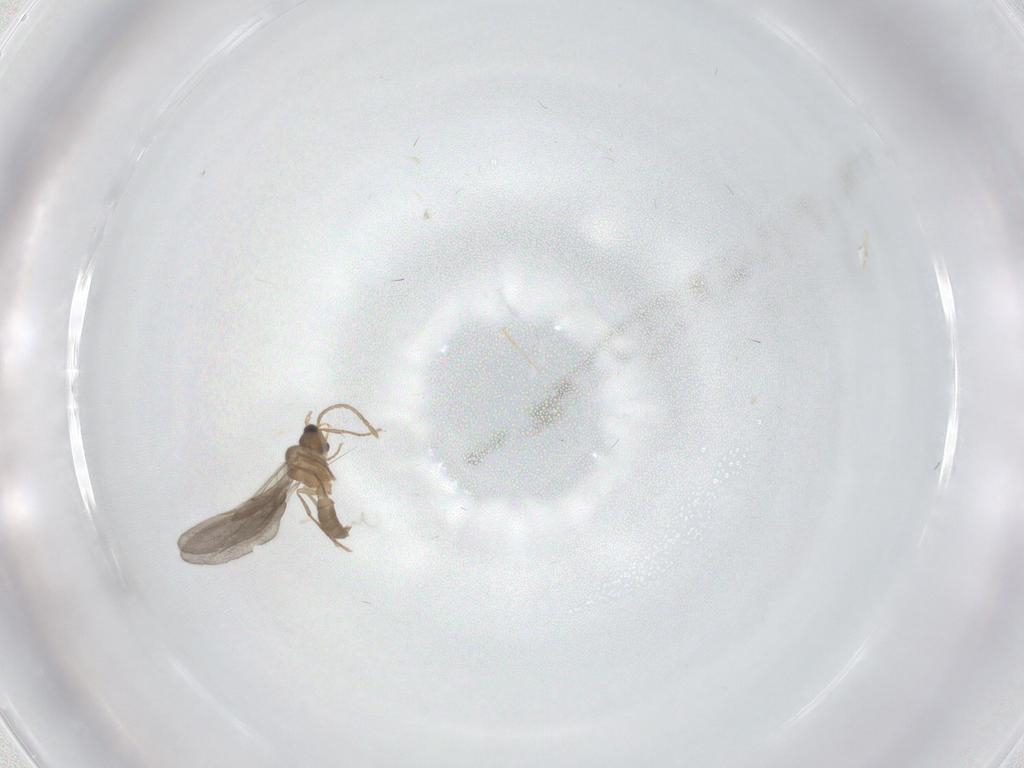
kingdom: Animalia
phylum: Arthropoda
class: Insecta
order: Hymenoptera
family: Formicidae
